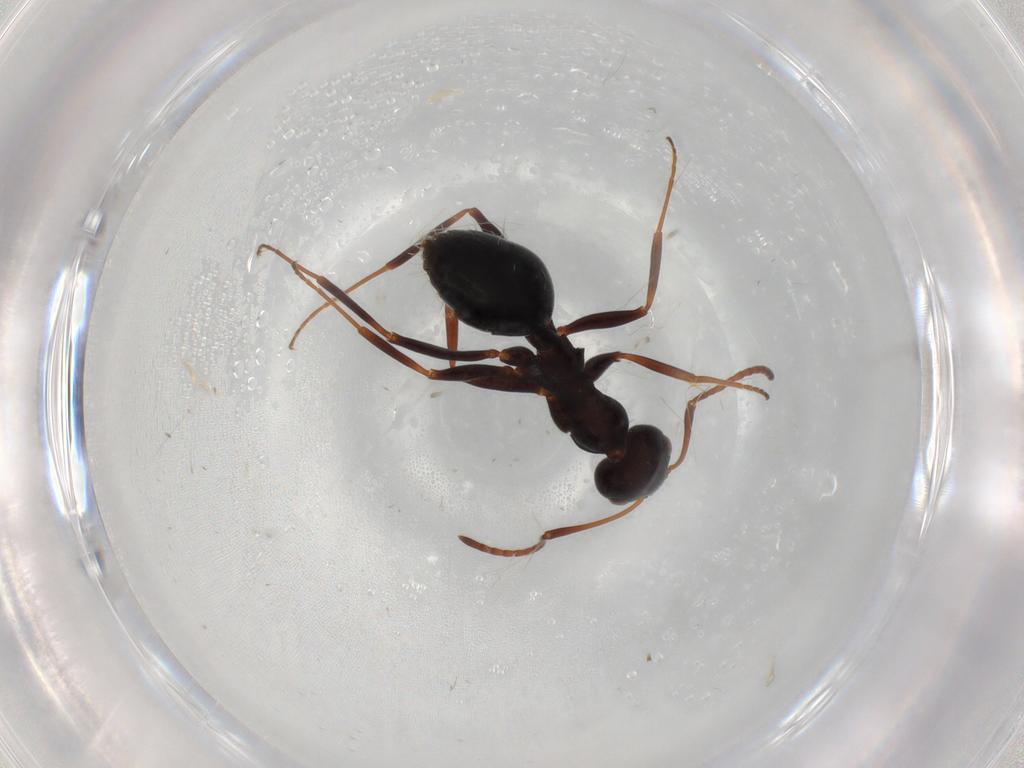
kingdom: Animalia
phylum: Arthropoda
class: Insecta
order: Hymenoptera
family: Formicidae
